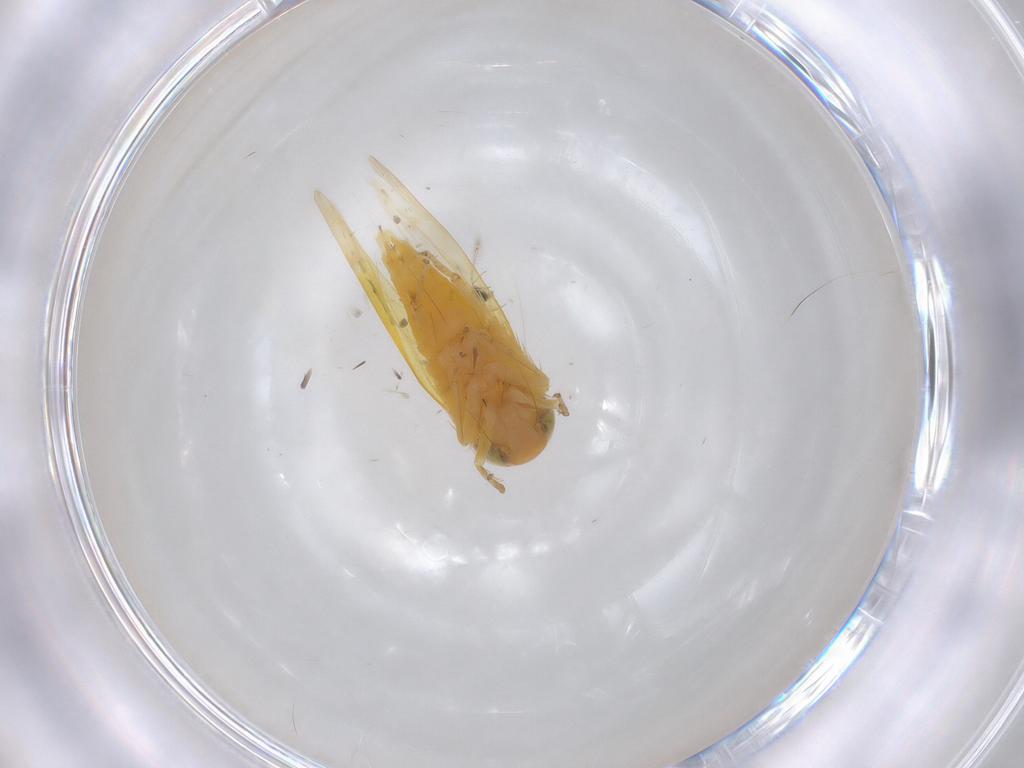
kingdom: Animalia
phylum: Arthropoda
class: Insecta
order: Hemiptera
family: Cicadellidae
